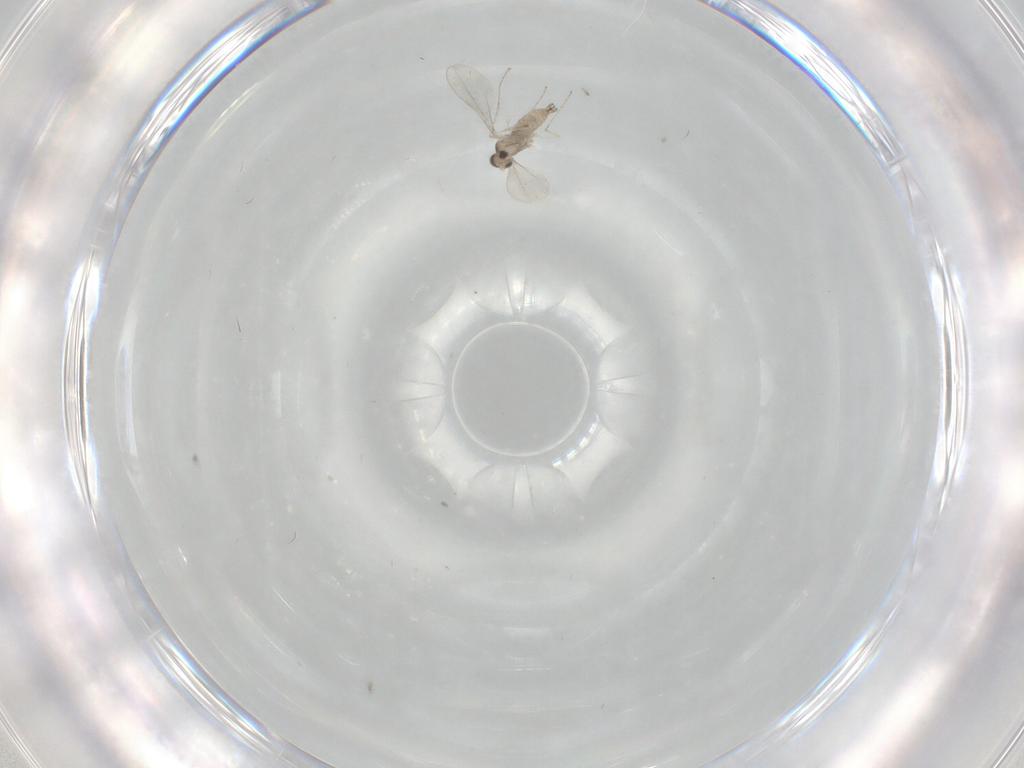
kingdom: Animalia
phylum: Arthropoda
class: Insecta
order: Diptera
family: Cecidomyiidae
